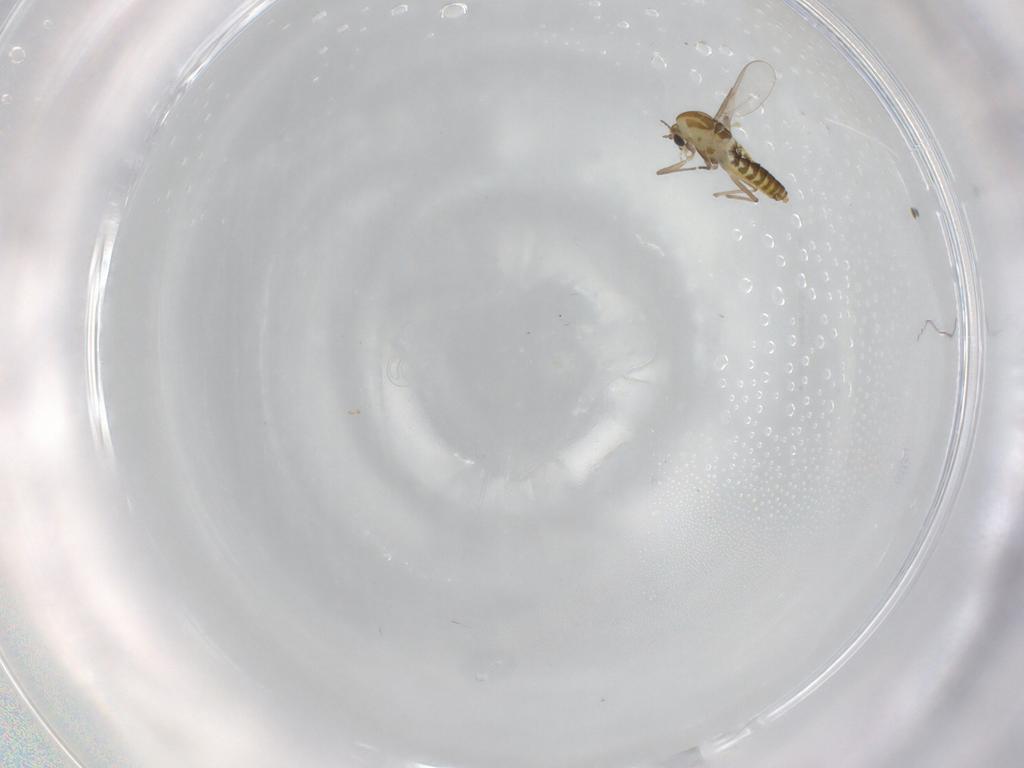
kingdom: Animalia
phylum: Arthropoda
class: Insecta
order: Diptera
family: Chironomidae
